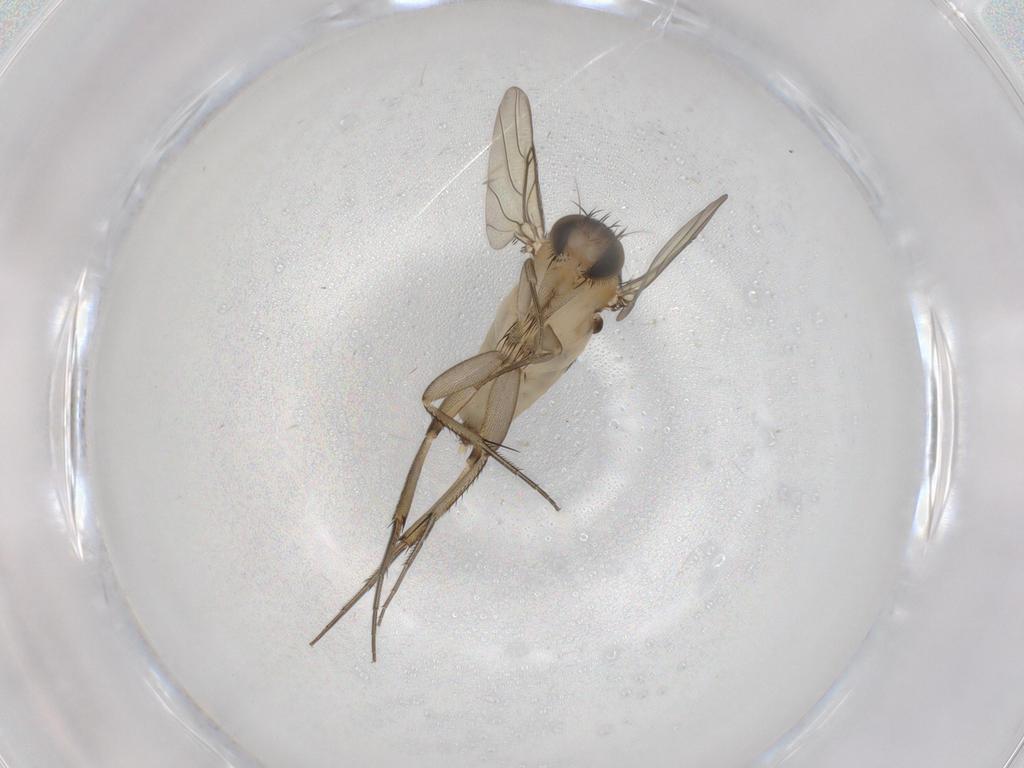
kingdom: Animalia
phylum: Arthropoda
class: Insecta
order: Diptera
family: Phoridae
